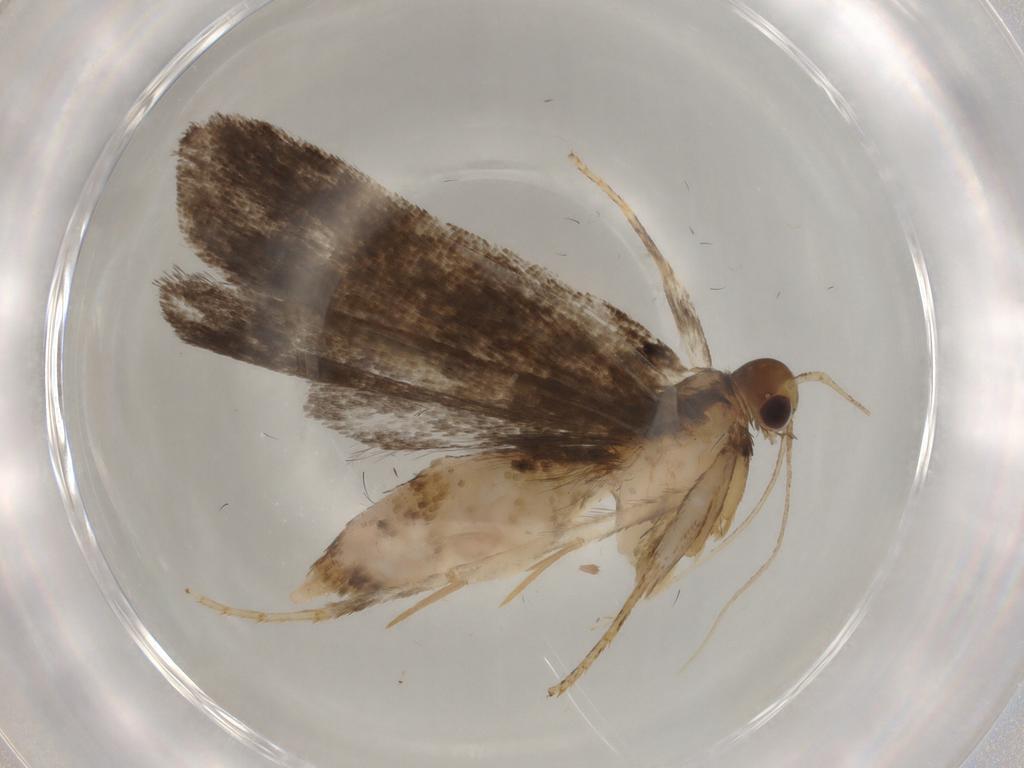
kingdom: Animalia
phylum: Arthropoda
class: Insecta
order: Lepidoptera
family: Gelechiidae
